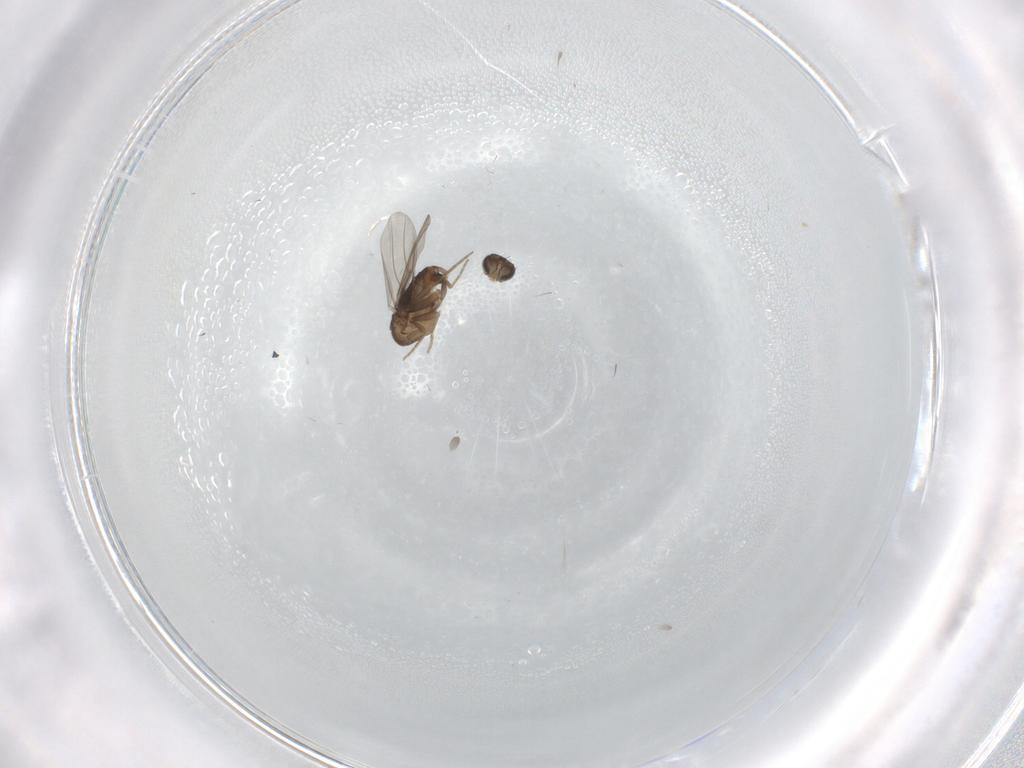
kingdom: Animalia
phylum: Arthropoda
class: Insecta
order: Diptera
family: Phoridae
